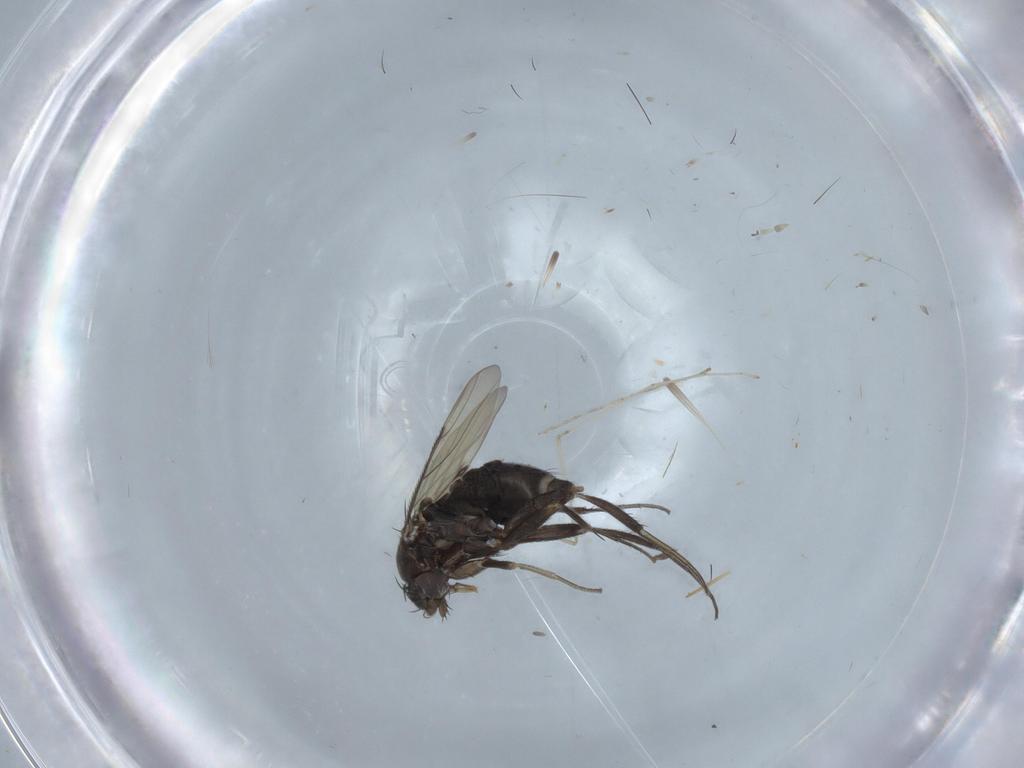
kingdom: Animalia
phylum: Arthropoda
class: Insecta
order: Diptera
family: Phoridae
